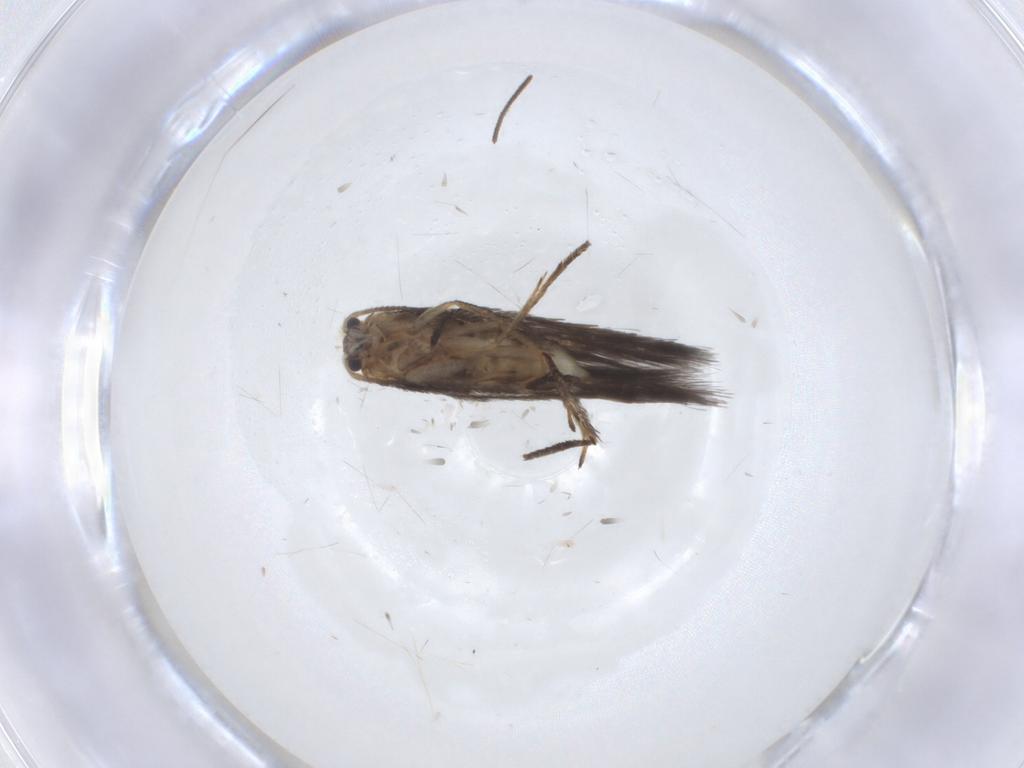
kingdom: Animalia
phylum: Arthropoda
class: Insecta
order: Lepidoptera
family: Nepticulidae
